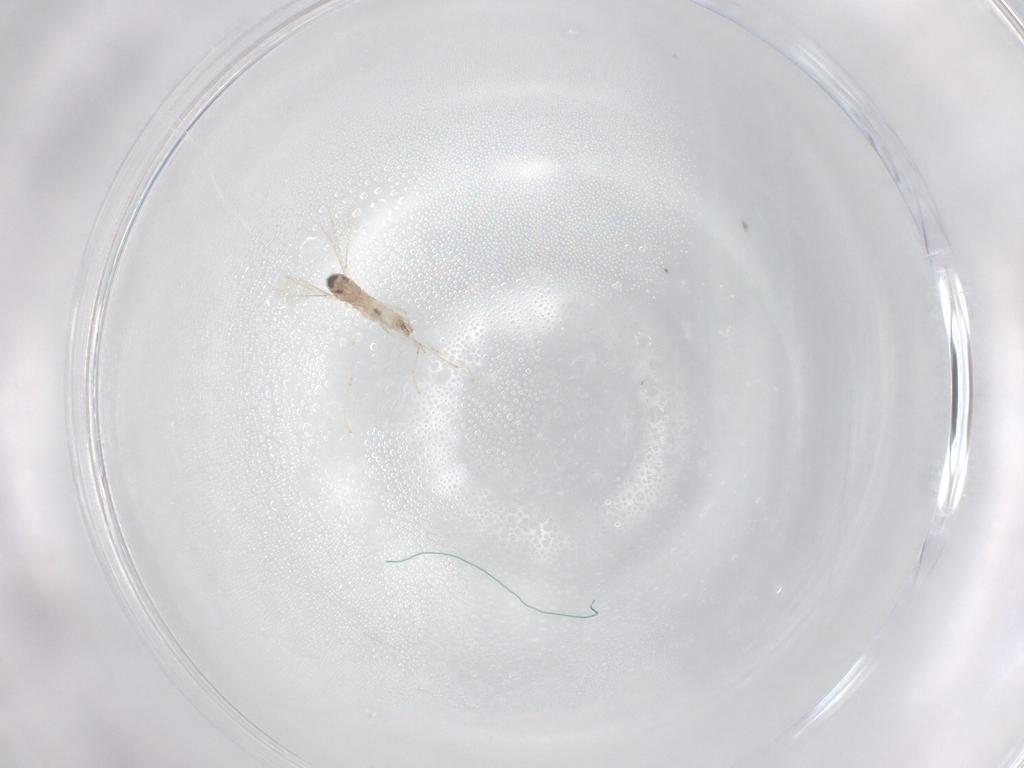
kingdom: Animalia
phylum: Arthropoda
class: Insecta
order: Diptera
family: Cecidomyiidae
